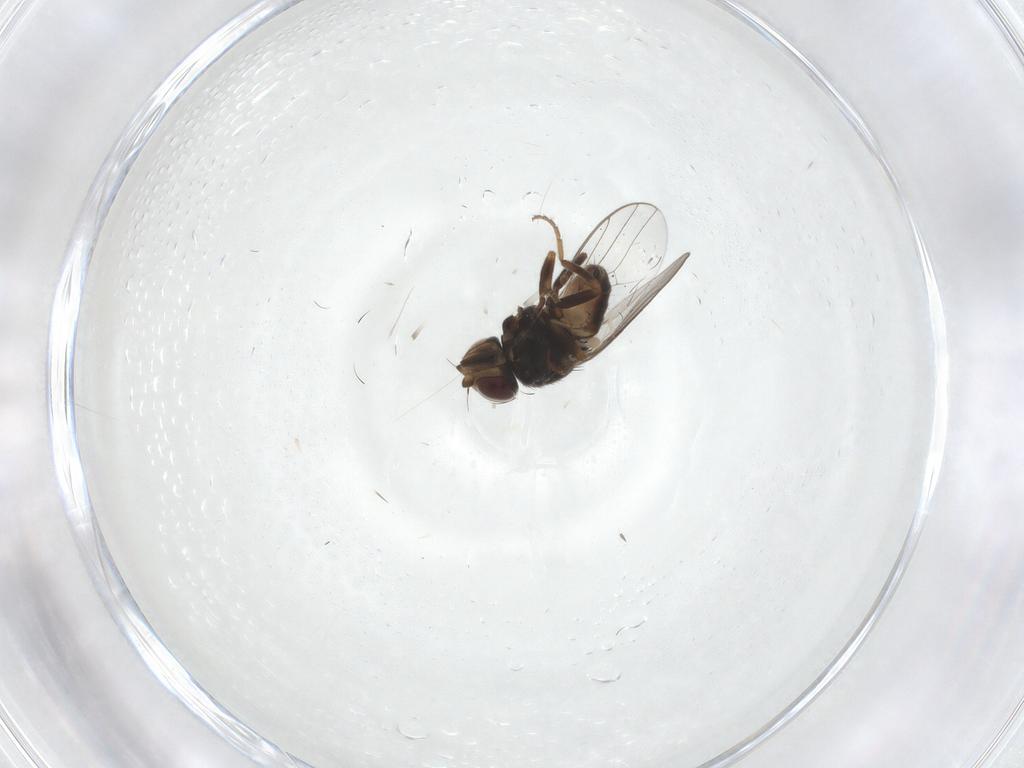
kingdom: Animalia
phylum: Arthropoda
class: Insecta
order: Diptera
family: Chloropidae
